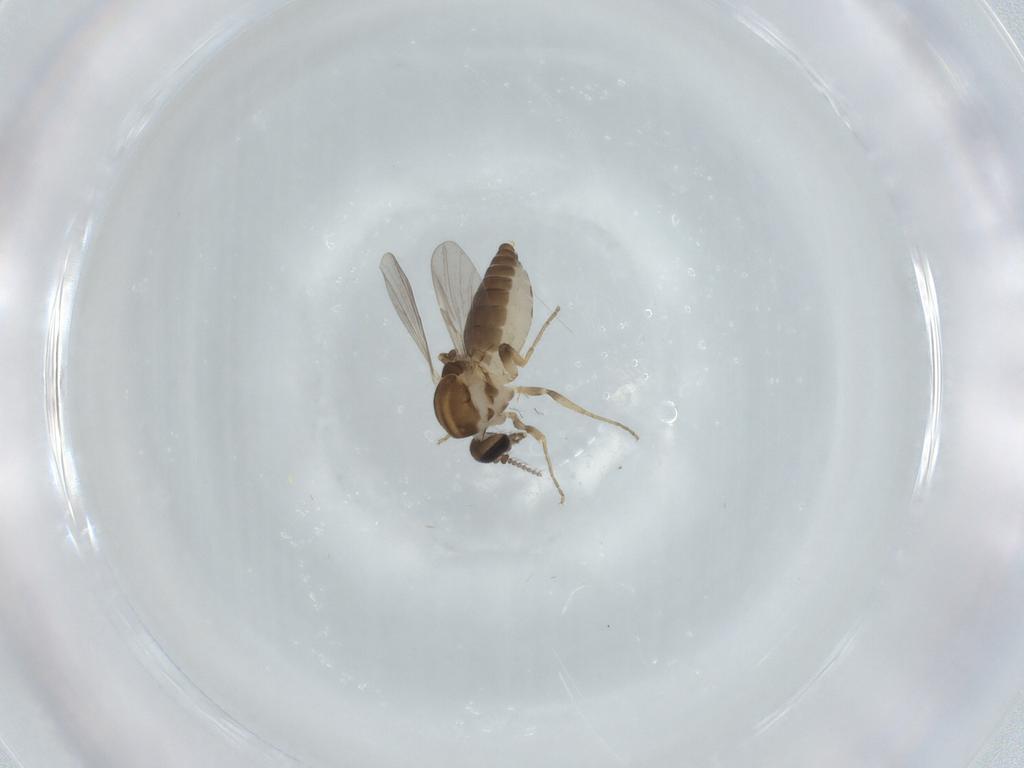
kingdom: Animalia
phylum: Arthropoda
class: Insecta
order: Diptera
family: Ceratopogonidae
